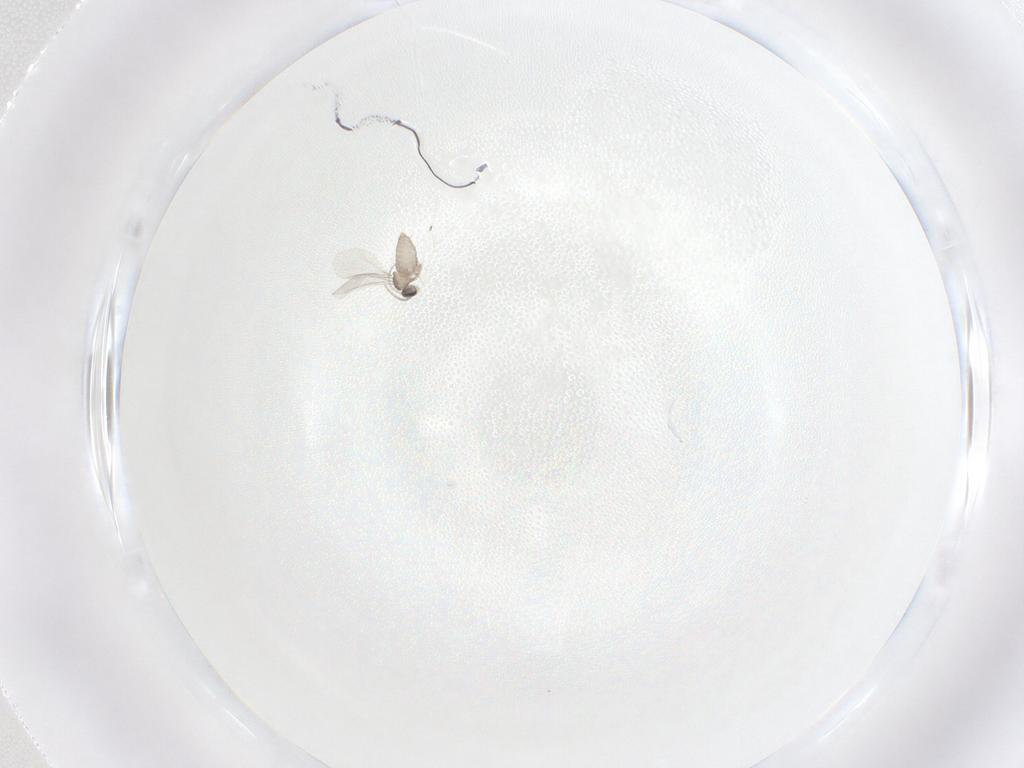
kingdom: Animalia
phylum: Arthropoda
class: Insecta
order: Diptera
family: Cecidomyiidae
